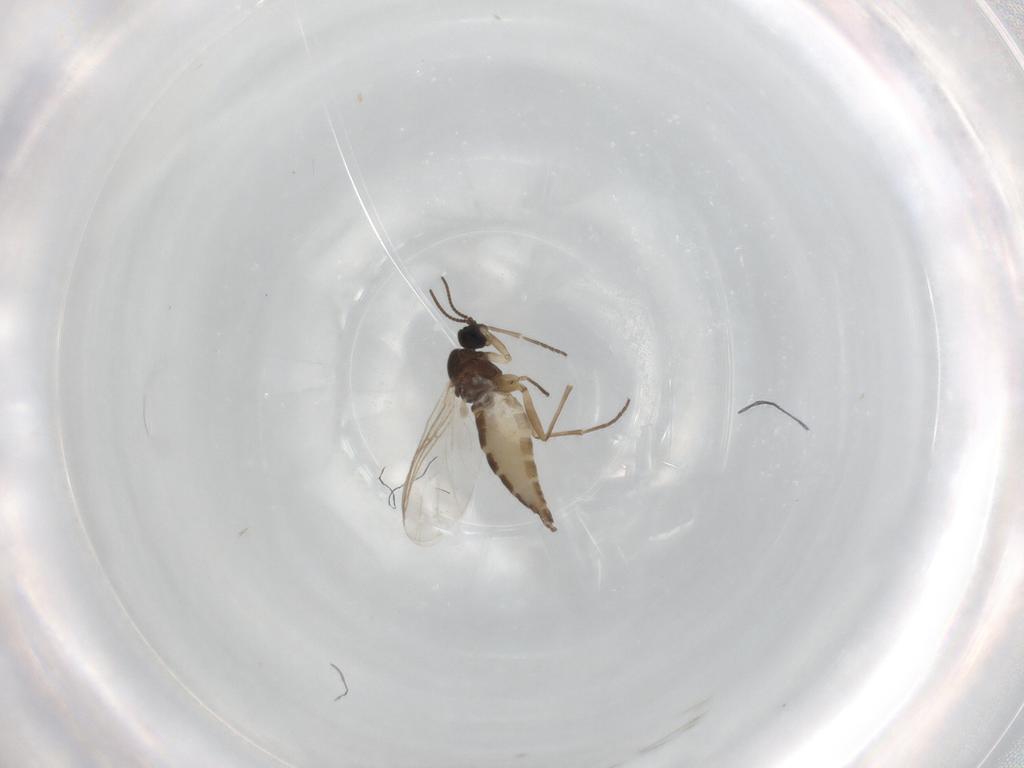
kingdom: Animalia
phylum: Arthropoda
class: Insecta
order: Diptera
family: Sciaridae
